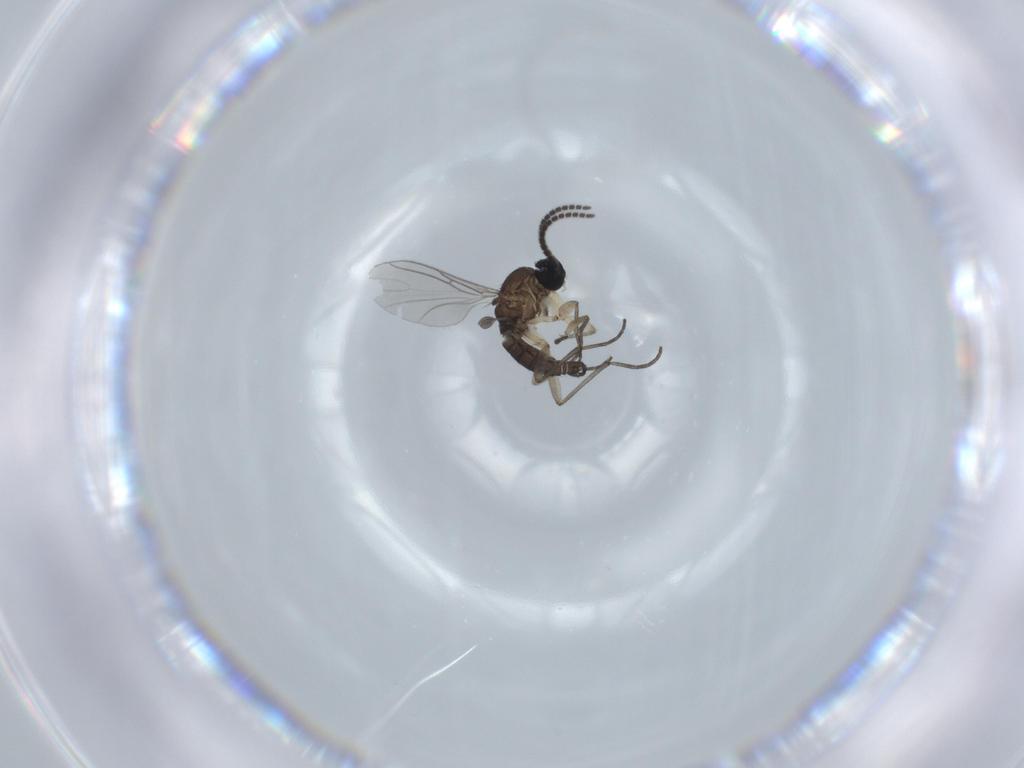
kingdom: Animalia
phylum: Arthropoda
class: Insecta
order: Diptera
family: Sciaridae
